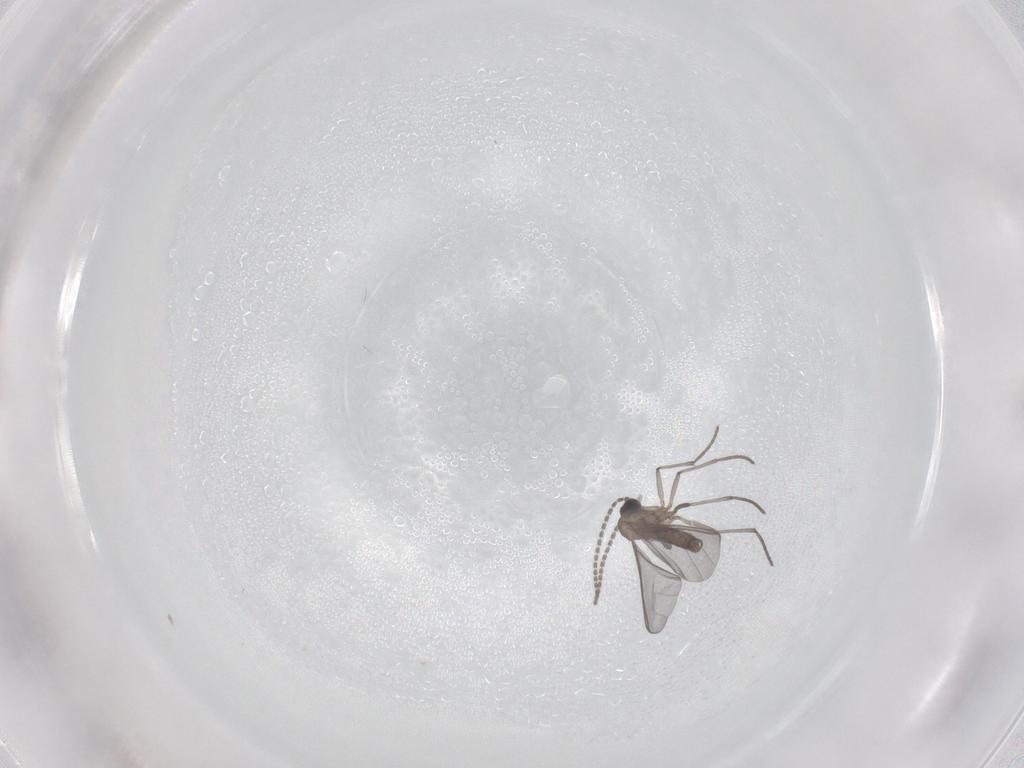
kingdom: Animalia
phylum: Arthropoda
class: Insecta
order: Diptera
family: Sciaridae
